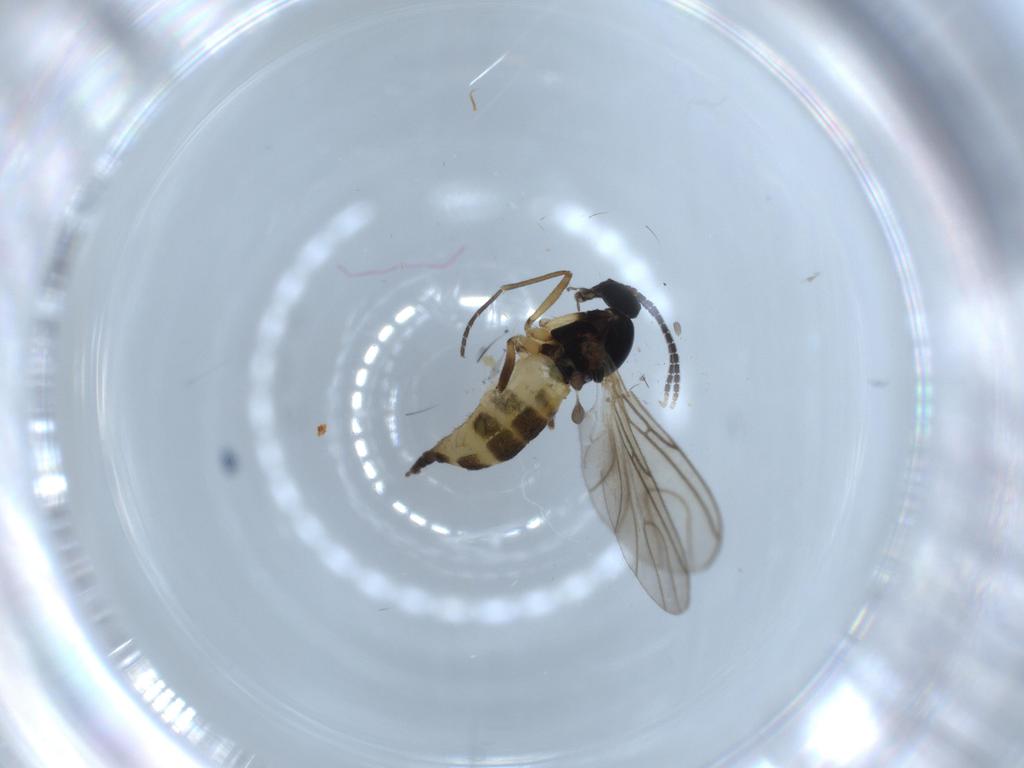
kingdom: Animalia
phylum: Arthropoda
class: Insecta
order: Diptera
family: Sciaridae
